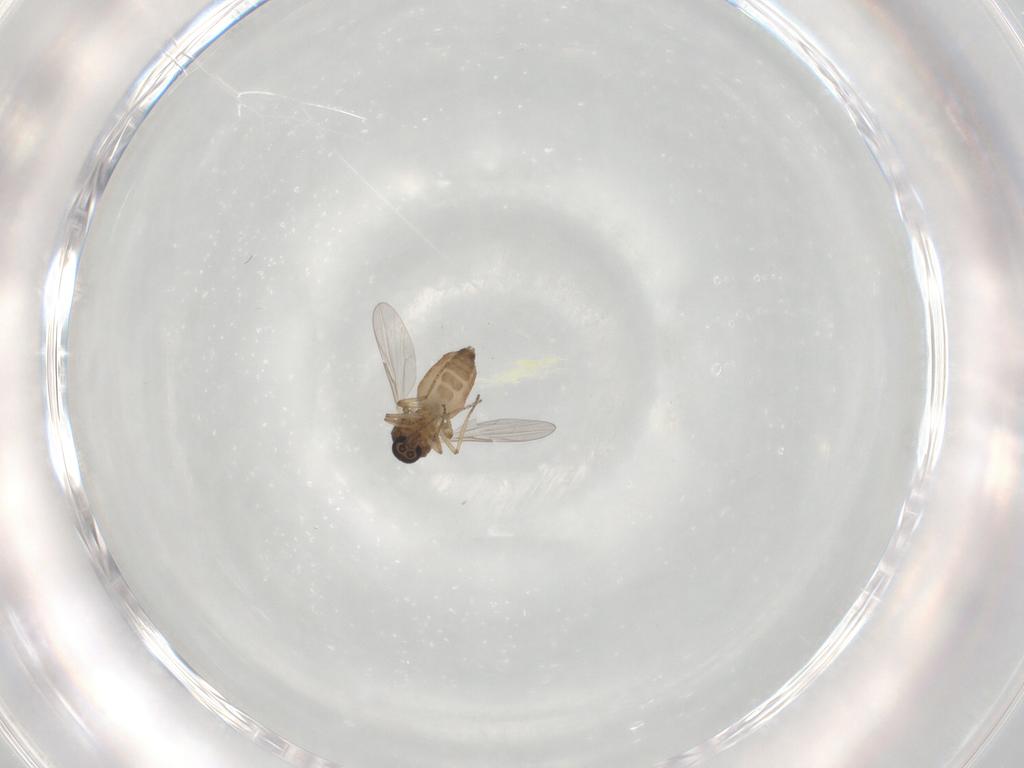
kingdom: Animalia
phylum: Arthropoda
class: Insecta
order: Diptera
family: Ceratopogonidae
